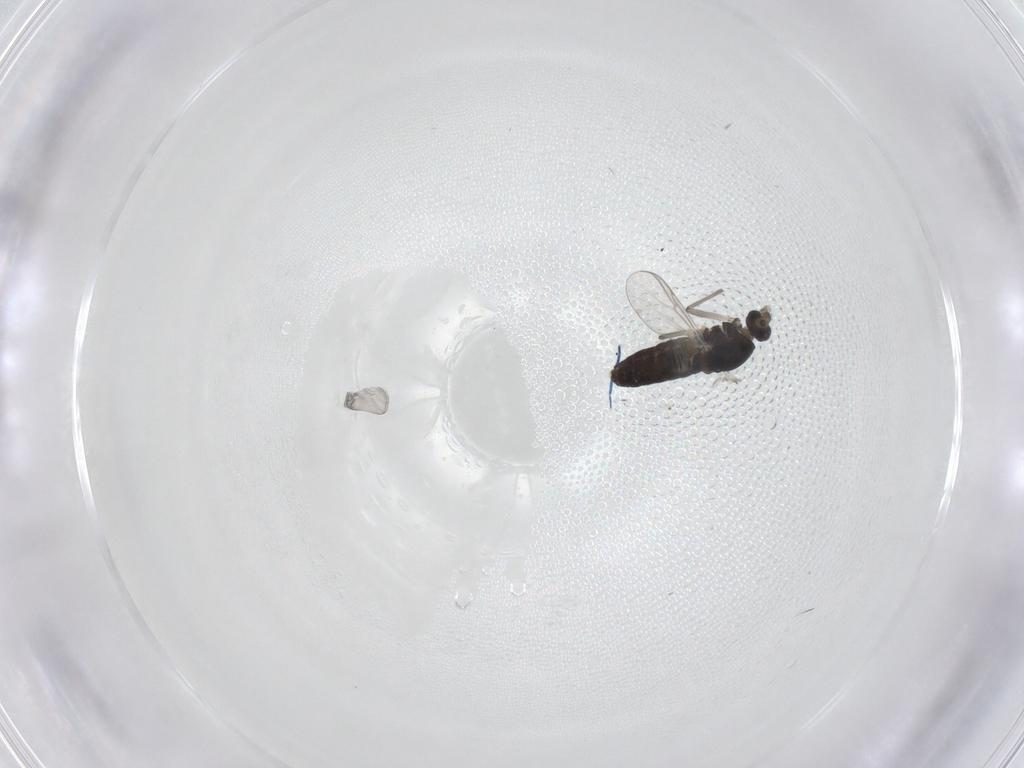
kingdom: Animalia
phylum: Arthropoda
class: Insecta
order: Diptera
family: Chironomidae
